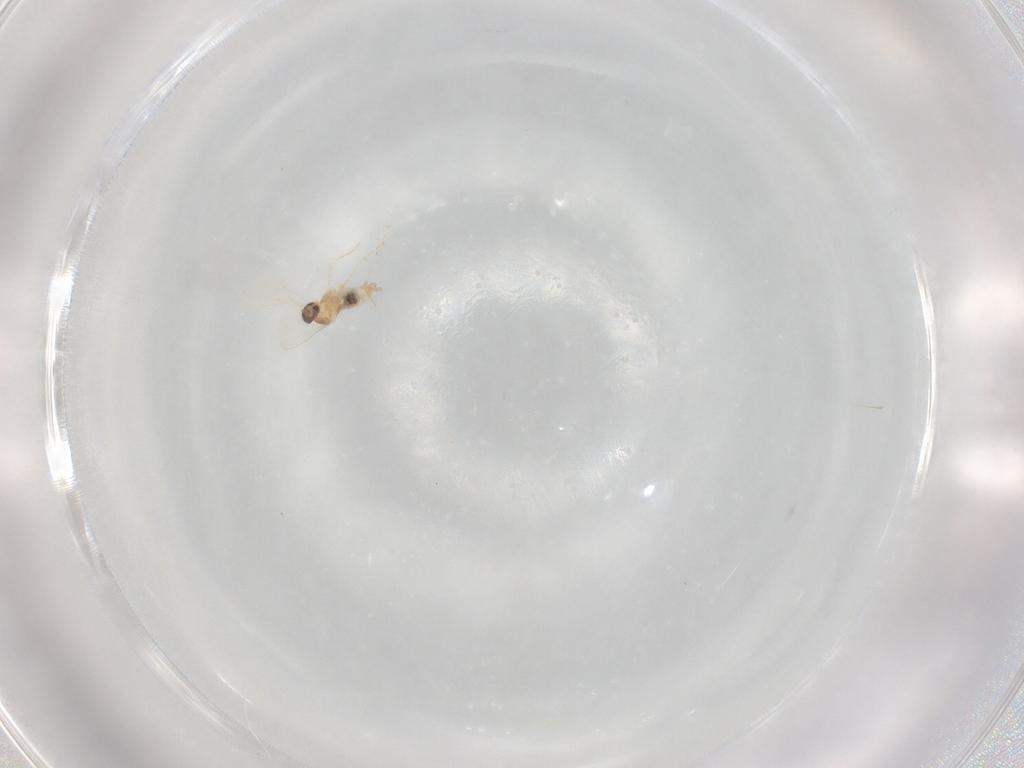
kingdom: Animalia
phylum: Arthropoda
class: Insecta
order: Diptera
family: Cecidomyiidae
